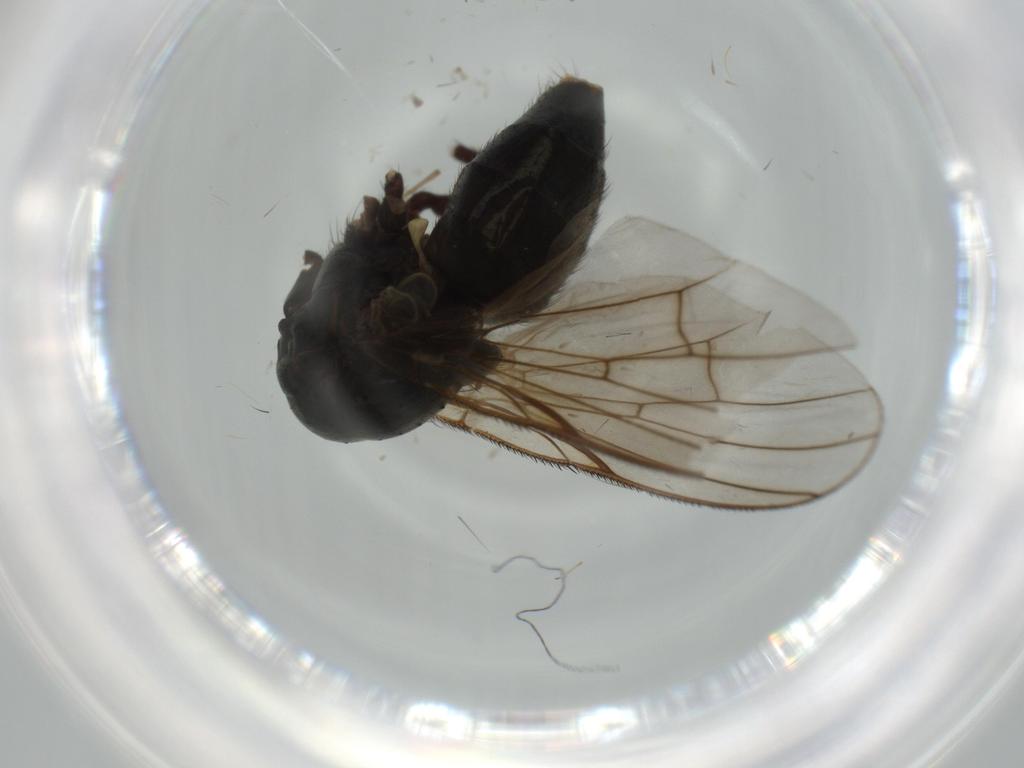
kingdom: Animalia
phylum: Arthropoda
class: Insecta
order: Diptera
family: Muscidae
